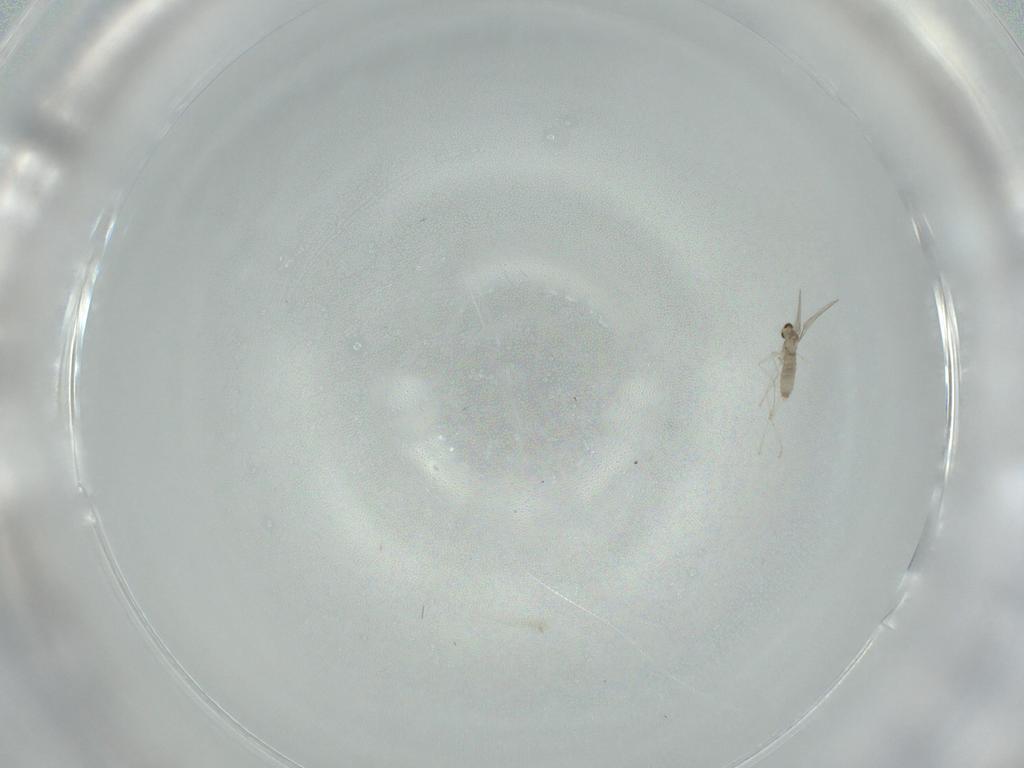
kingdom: Animalia
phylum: Arthropoda
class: Insecta
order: Diptera
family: Cecidomyiidae
